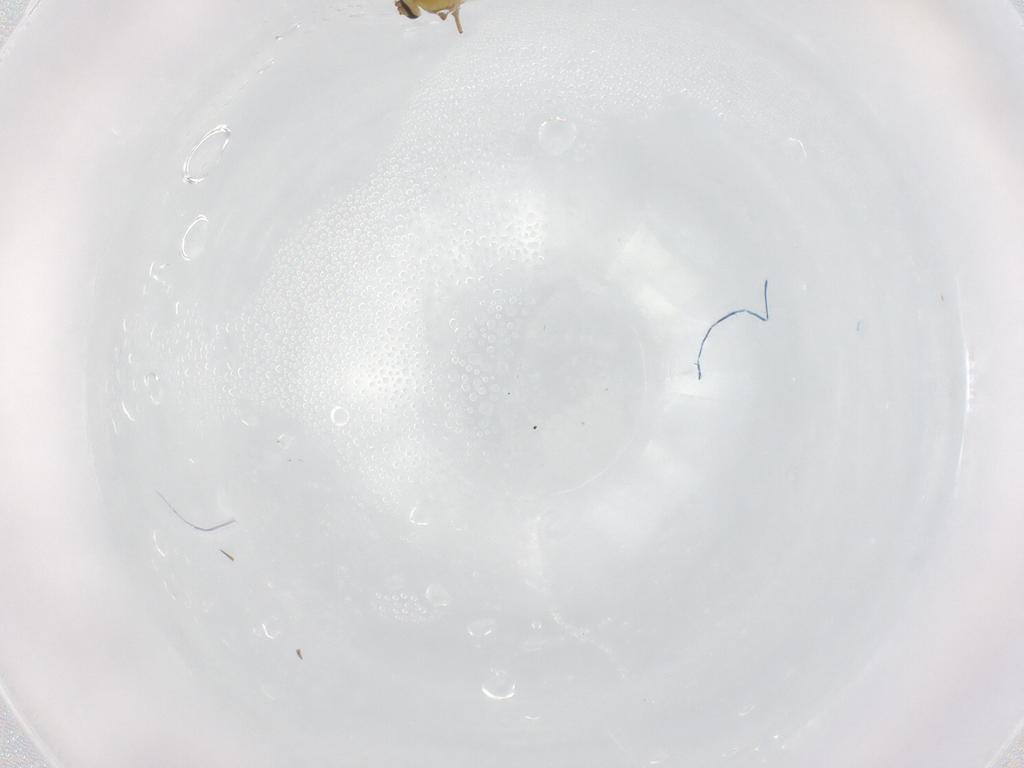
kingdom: Animalia
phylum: Arthropoda
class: Insecta
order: Diptera
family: Ceratopogonidae
